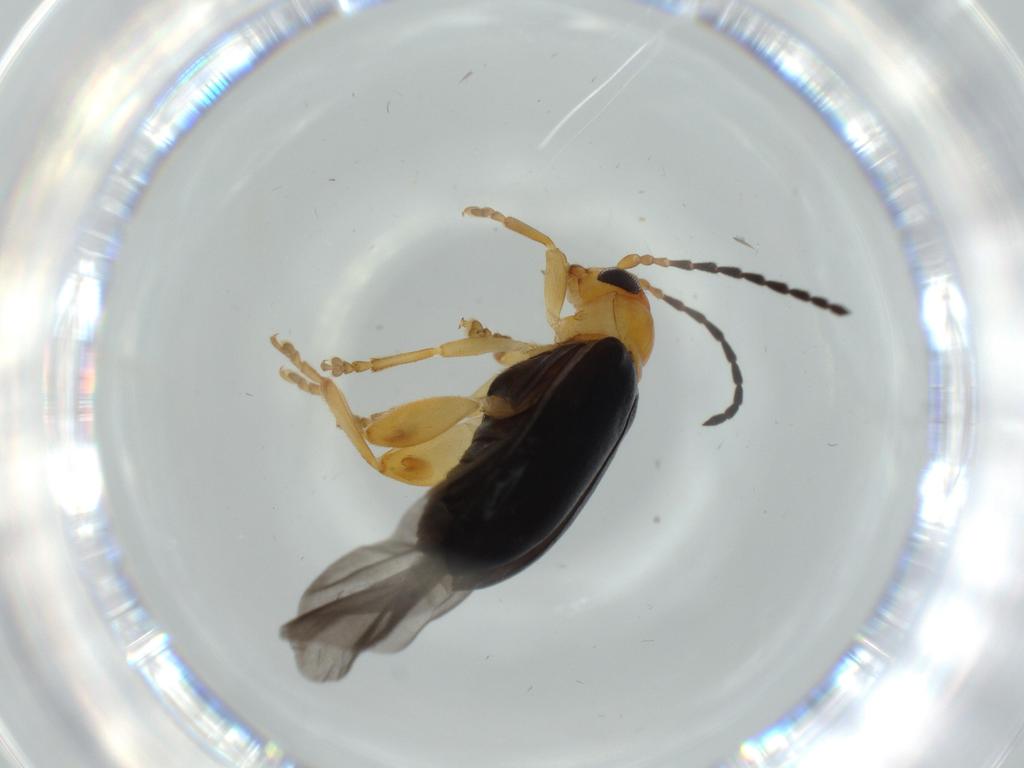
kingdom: Animalia
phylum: Arthropoda
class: Insecta
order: Coleoptera
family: Chrysomelidae
